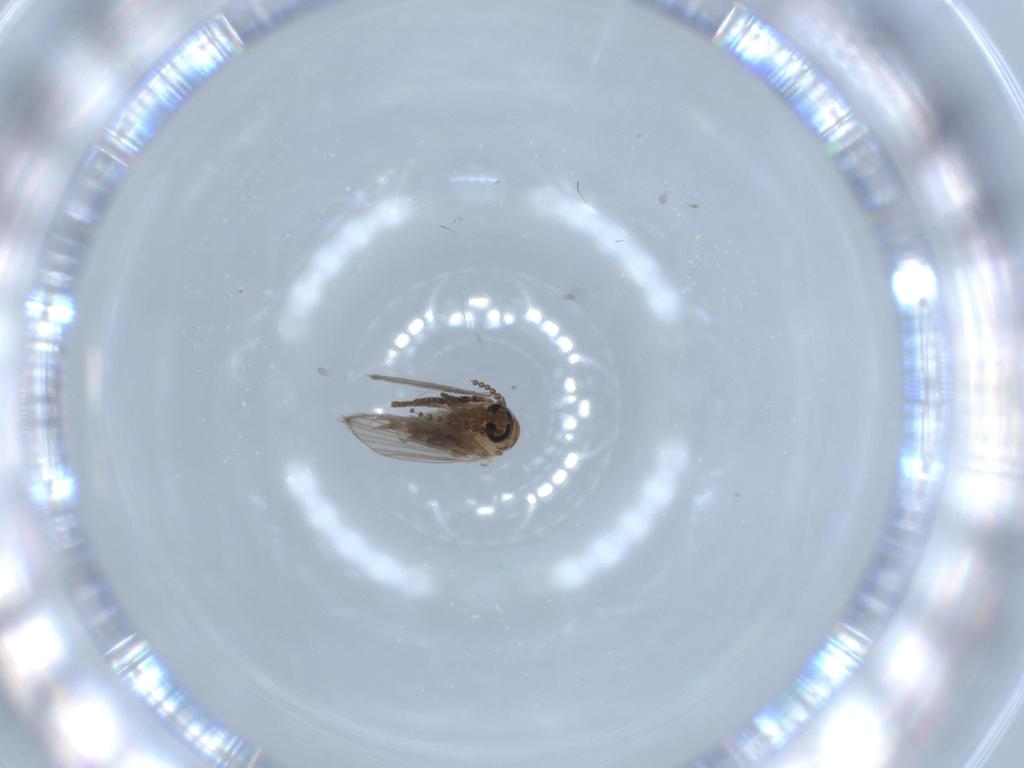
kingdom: Animalia
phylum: Arthropoda
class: Insecta
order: Diptera
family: Psychodidae
